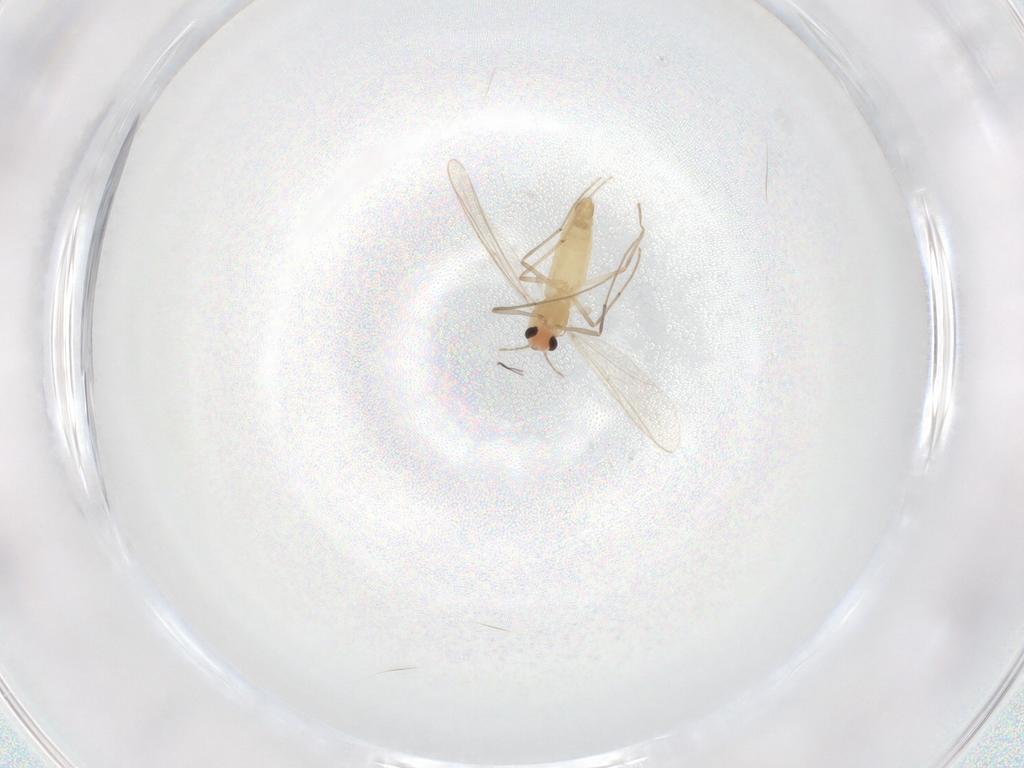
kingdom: Animalia
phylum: Arthropoda
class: Insecta
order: Diptera
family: Chironomidae
